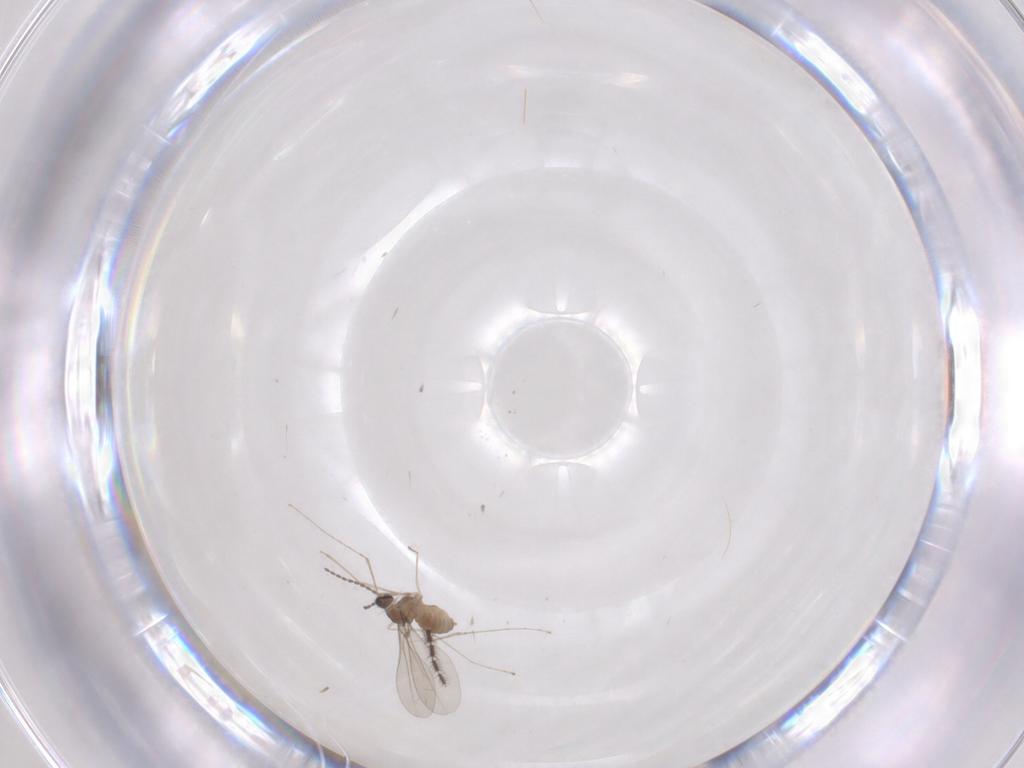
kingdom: Animalia
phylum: Arthropoda
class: Insecta
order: Diptera
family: Cecidomyiidae
